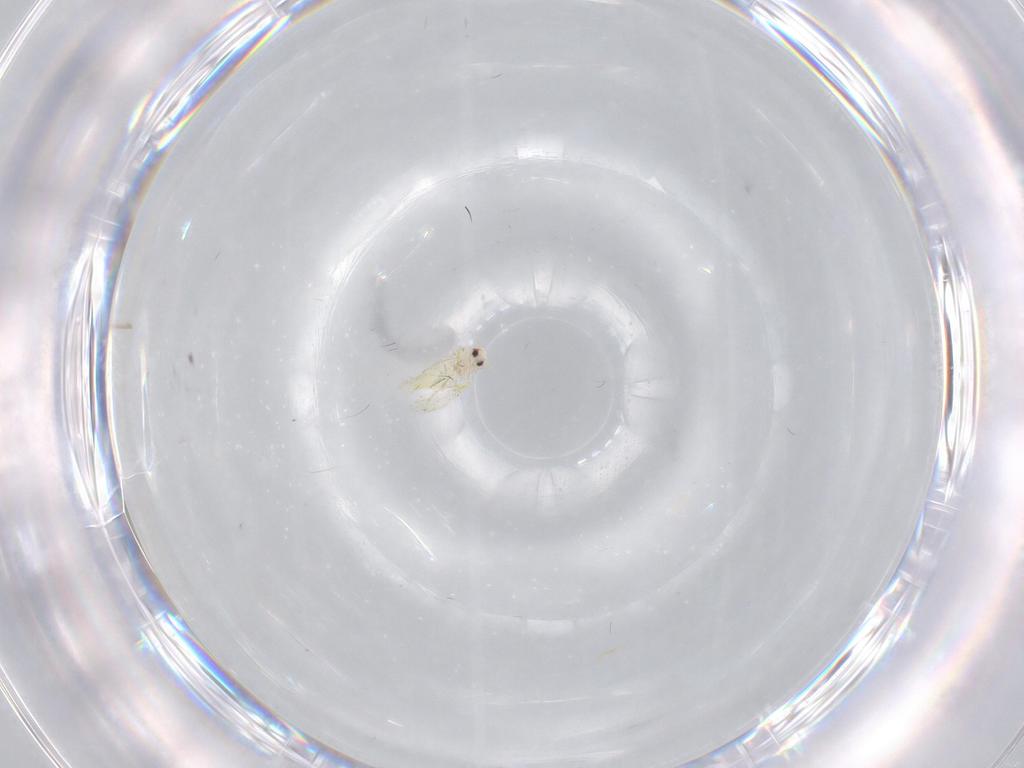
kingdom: Animalia
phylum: Arthropoda
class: Insecta
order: Hemiptera
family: Aleyrodidae
